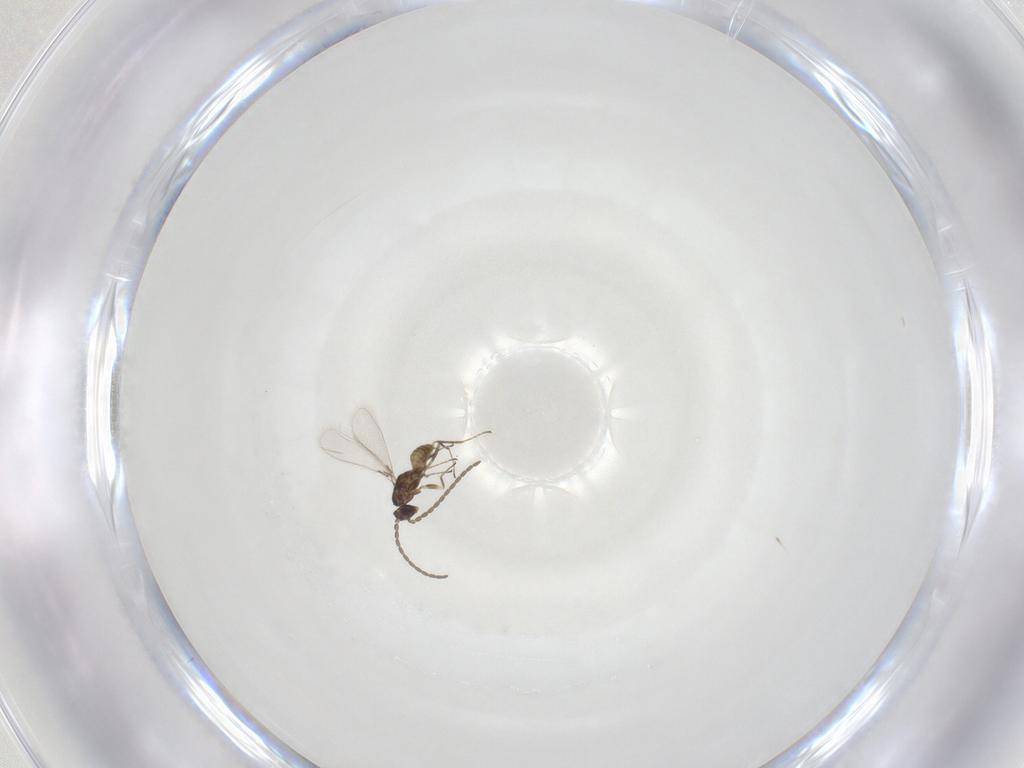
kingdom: Animalia
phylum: Arthropoda
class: Insecta
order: Hymenoptera
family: Mymaridae
